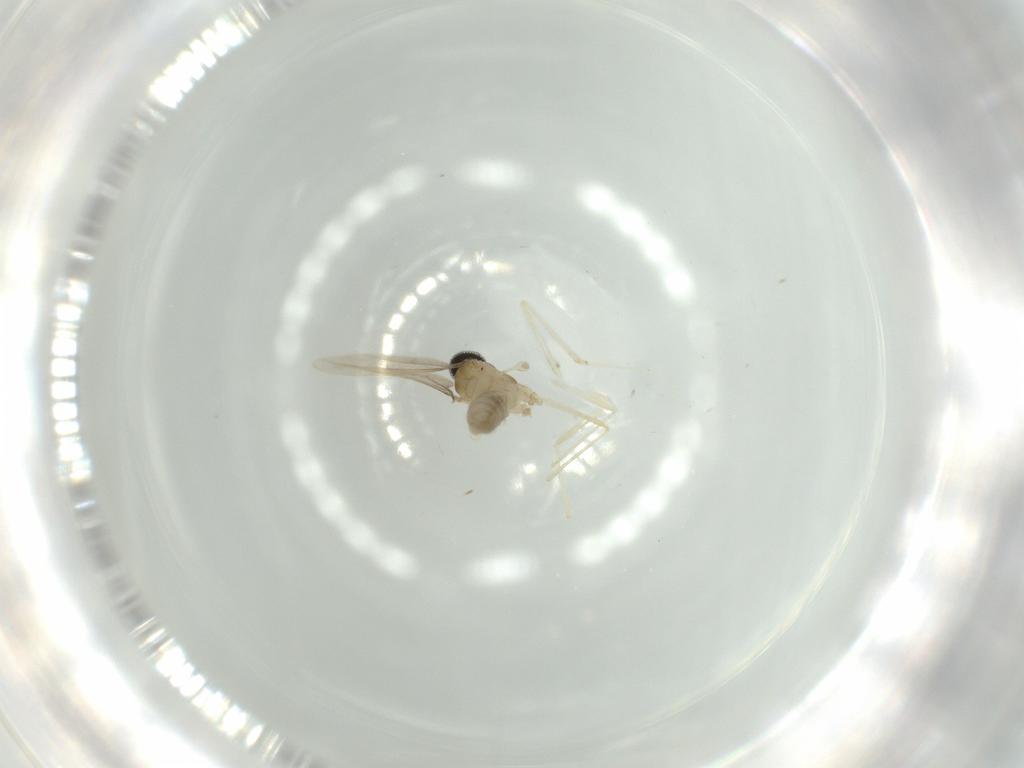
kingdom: Animalia
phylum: Arthropoda
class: Insecta
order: Diptera
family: Cecidomyiidae
